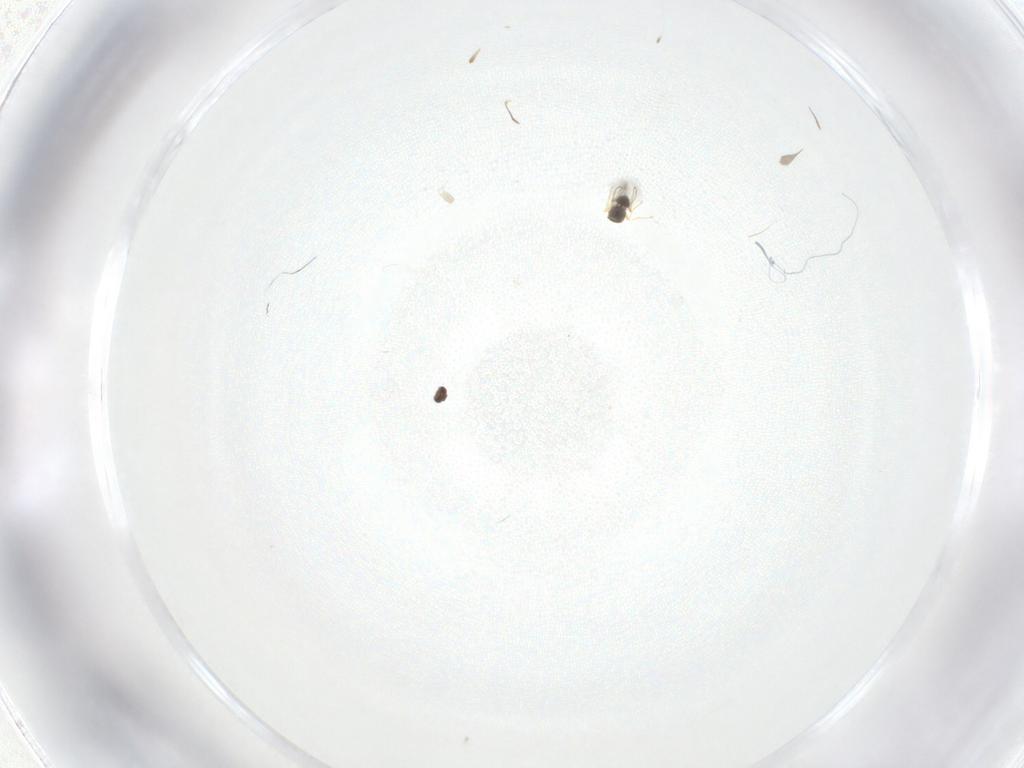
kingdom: Animalia
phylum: Arthropoda
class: Insecta
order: Hymenoptera
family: Mymaridae
